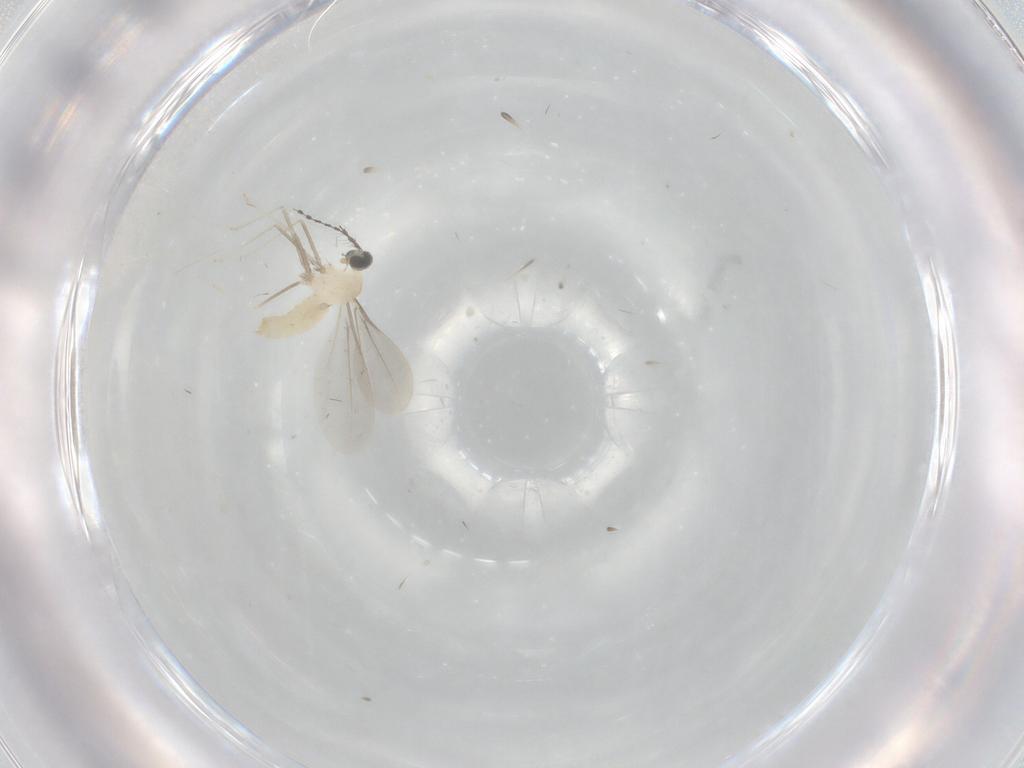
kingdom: Animalia
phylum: Arthropoda
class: Insecta
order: Diptera
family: Cecidomyiidae
